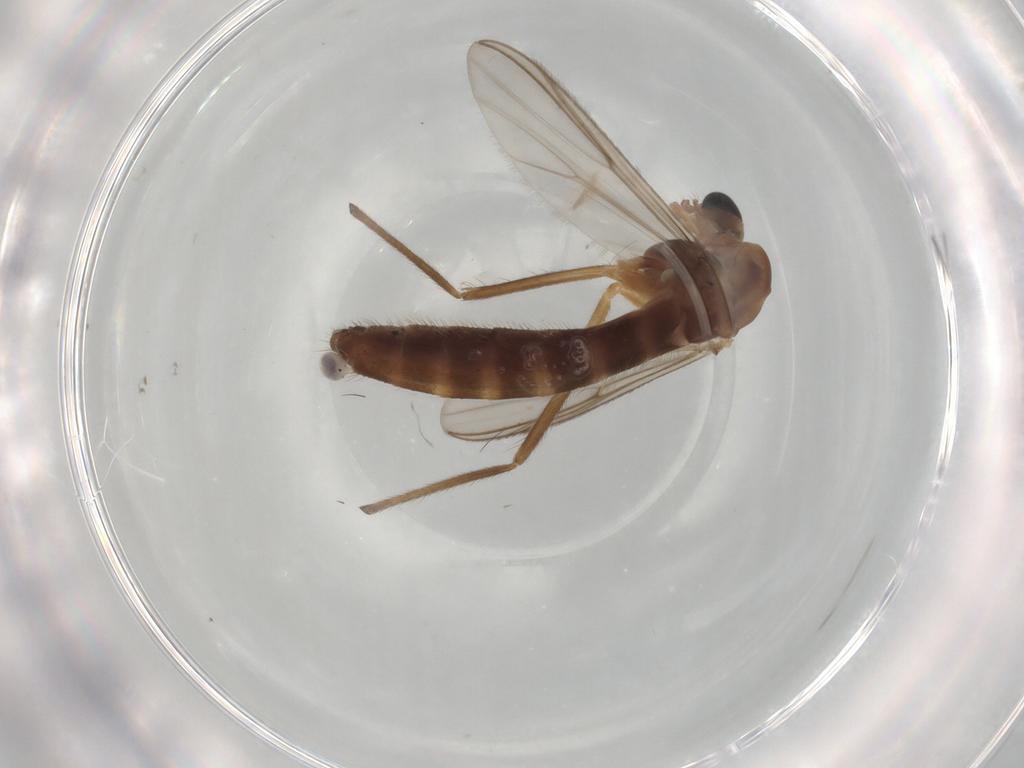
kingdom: Animalia
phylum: Arthropoda
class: Insecta
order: Diptera
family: Chironomidae
